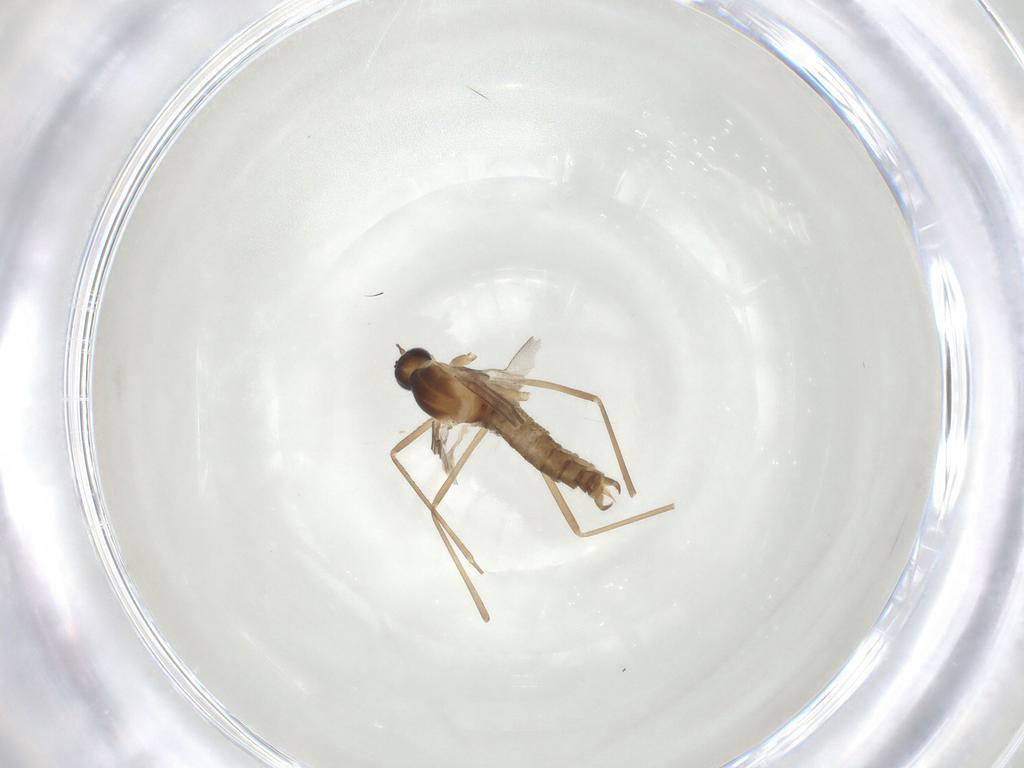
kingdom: Animalia
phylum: Arthropoda
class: Insecta
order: Diptera
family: Cecidomyiidae
